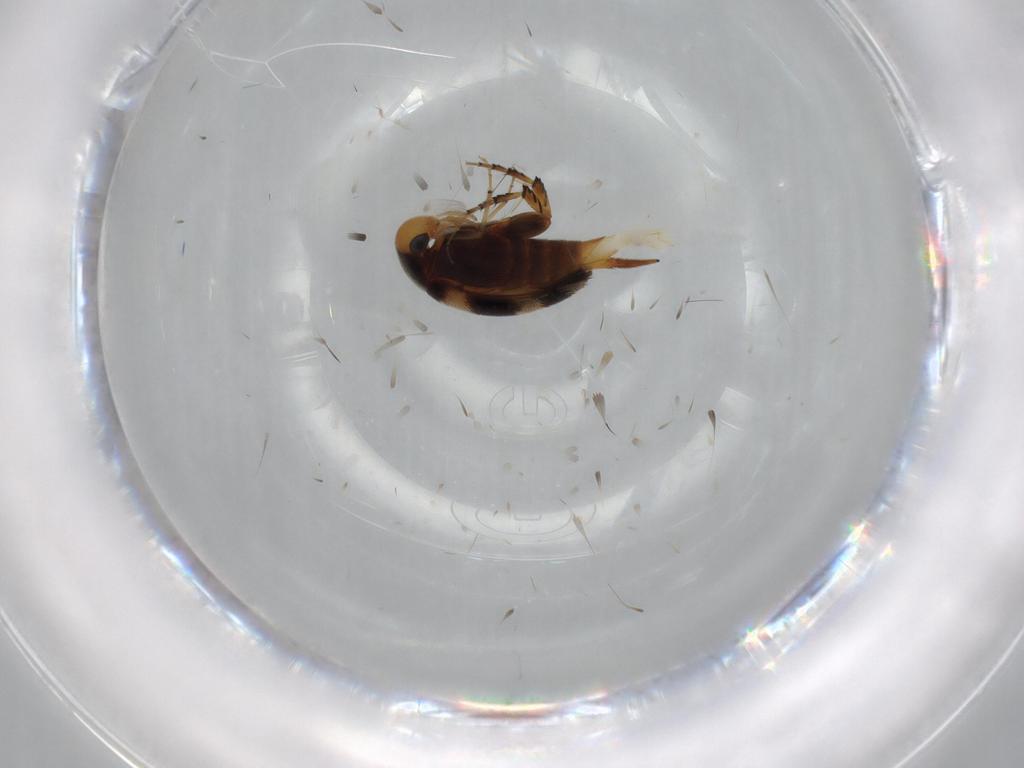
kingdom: Animalia
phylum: Arthropoda
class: Insecta
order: Coleoptera
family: Mordellidae
